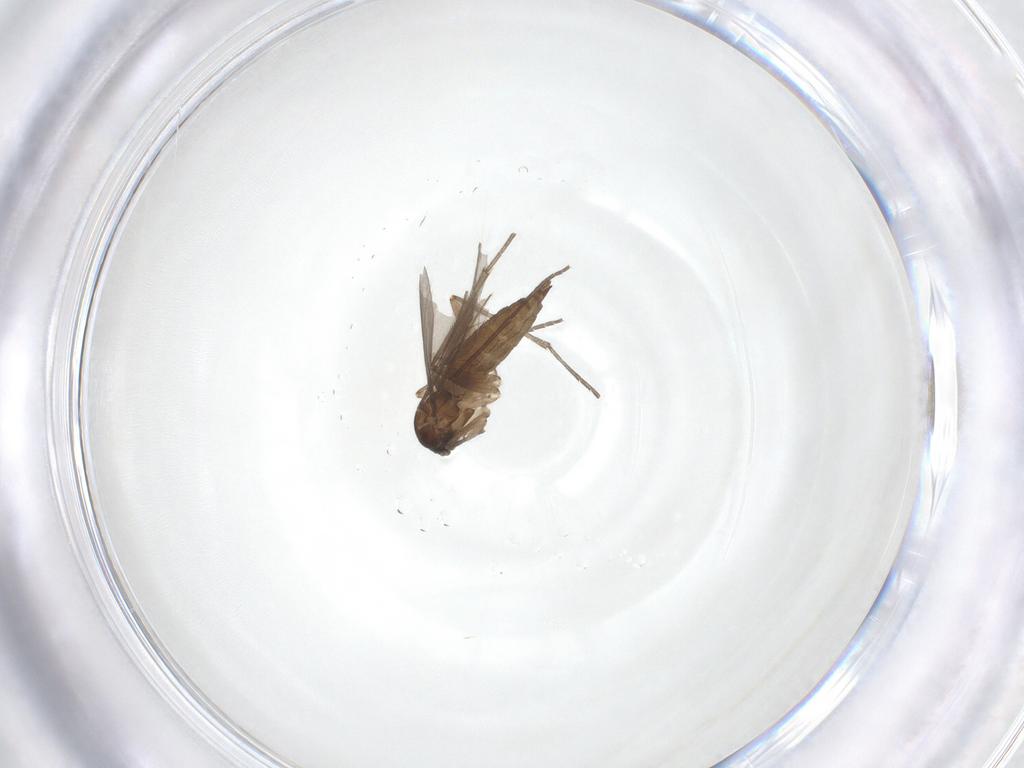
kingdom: Animalia
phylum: Arthropoda
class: Insecta
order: Diptera
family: Sciaridae
